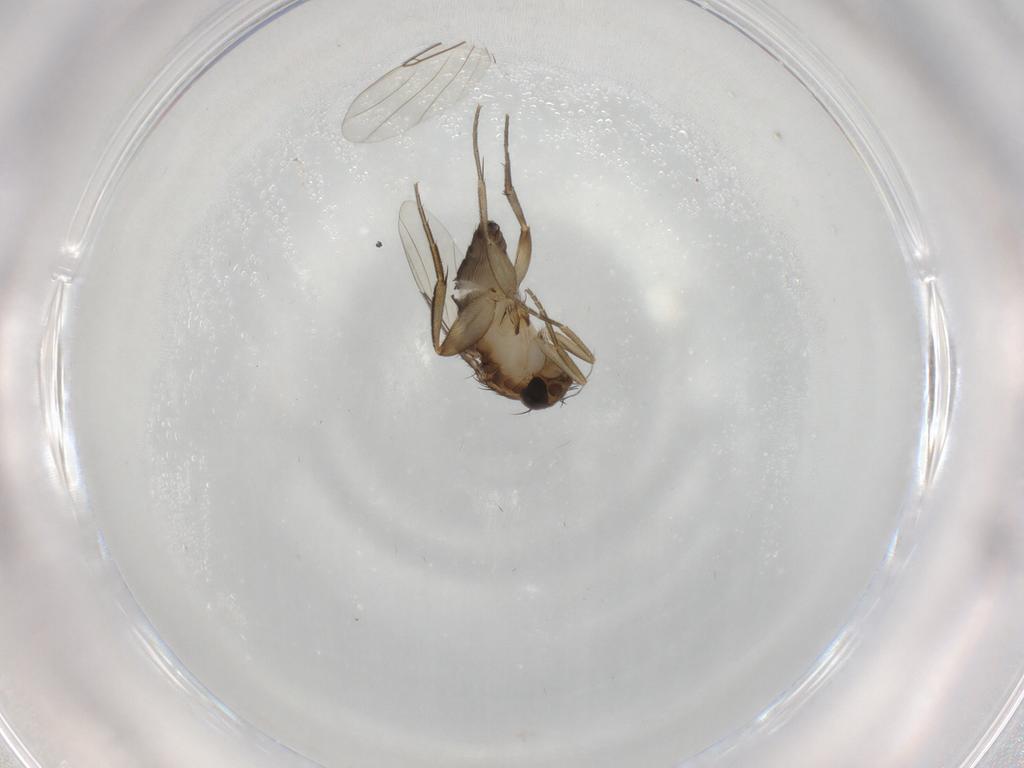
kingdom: Animalia
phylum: Arthropoda
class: Insecta
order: Diptera
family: Phoridae
